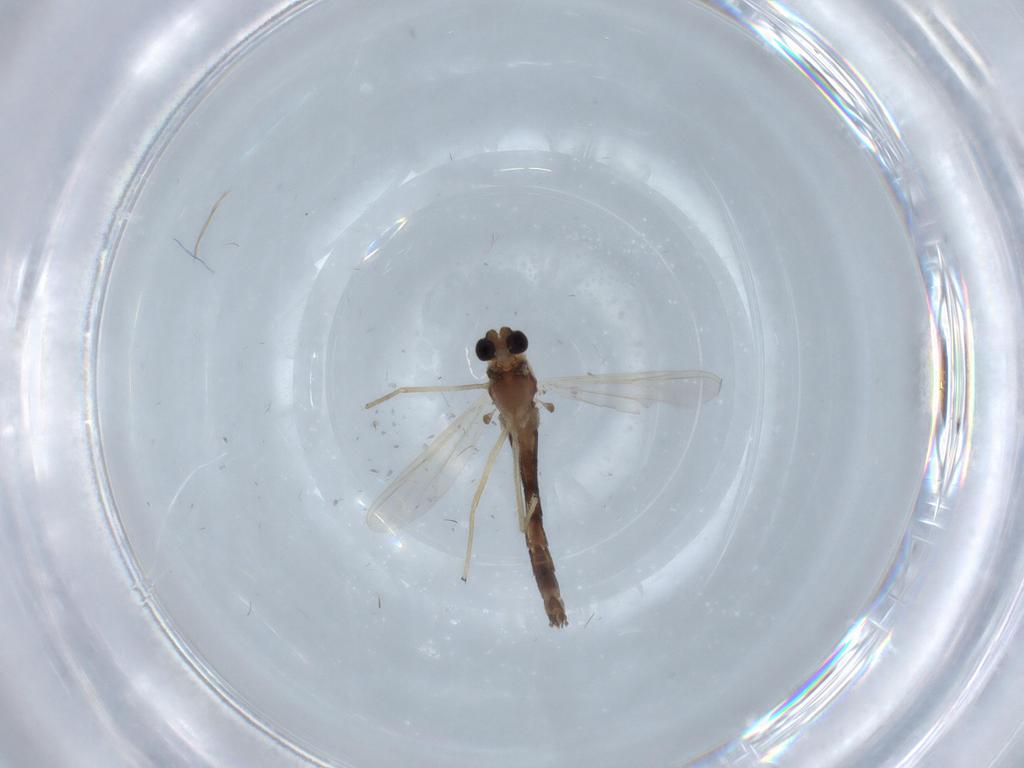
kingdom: Animalia
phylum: Arthropoda
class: Insecta
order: Diptera
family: Chironomidae
